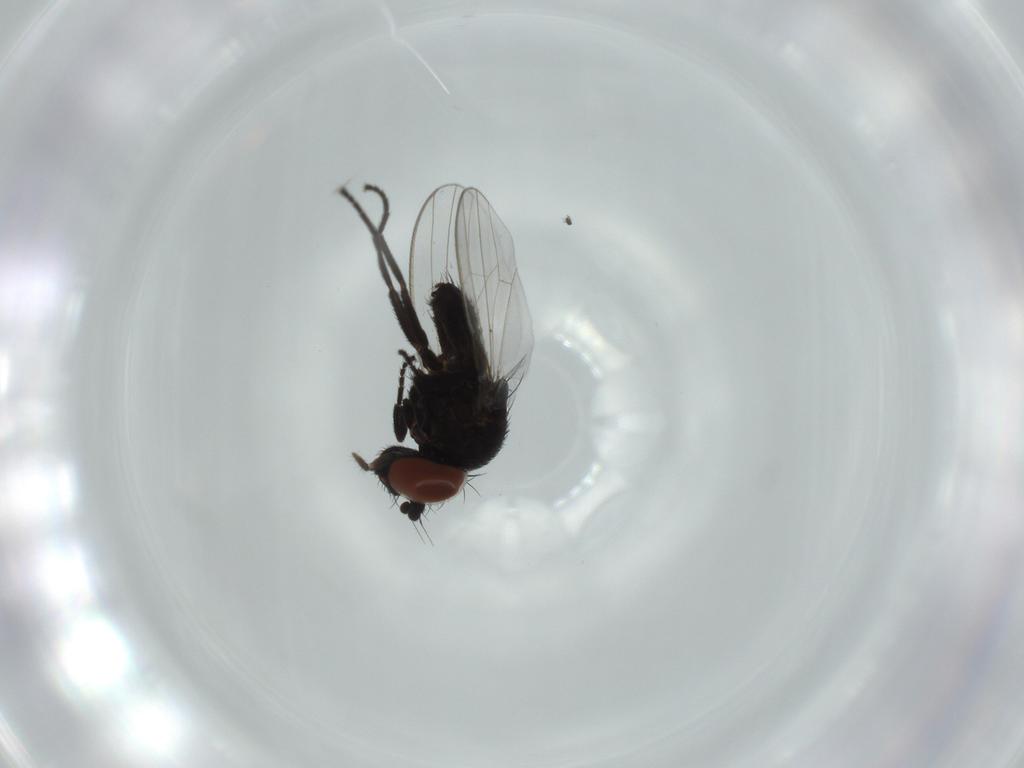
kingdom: Animalia
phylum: Arthropoda
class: Insecta
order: Diptera
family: Milichiidae
